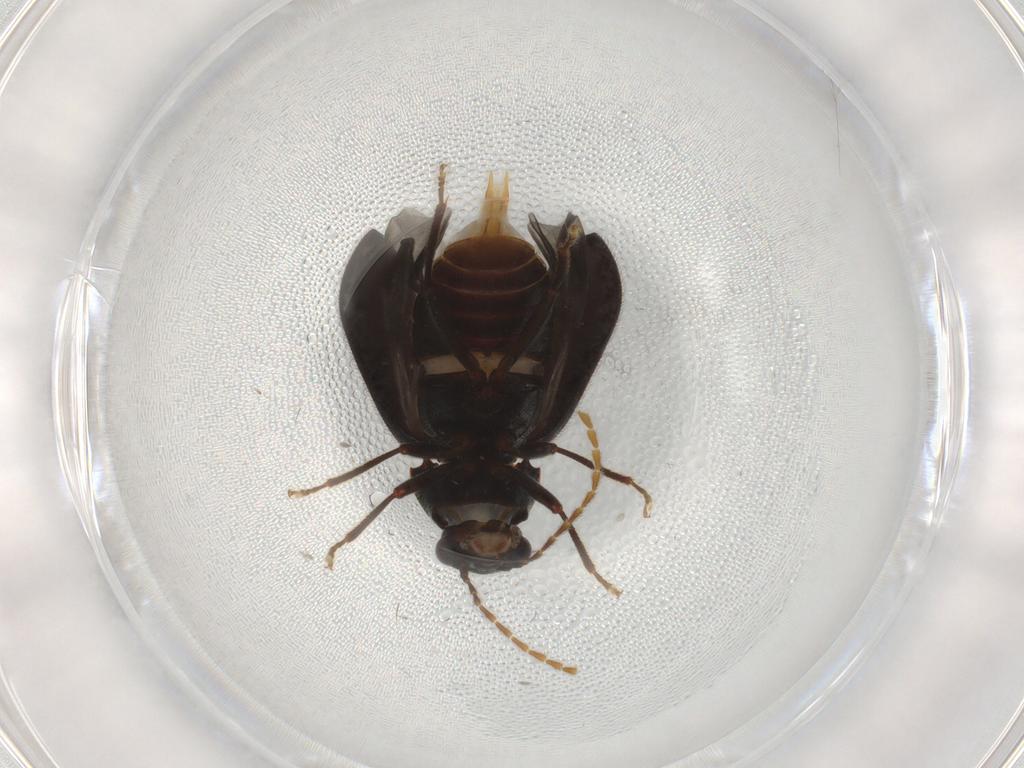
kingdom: Animalia
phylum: Arthropoda
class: Insecta
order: Coleoptera
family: Ptilodactylidae
